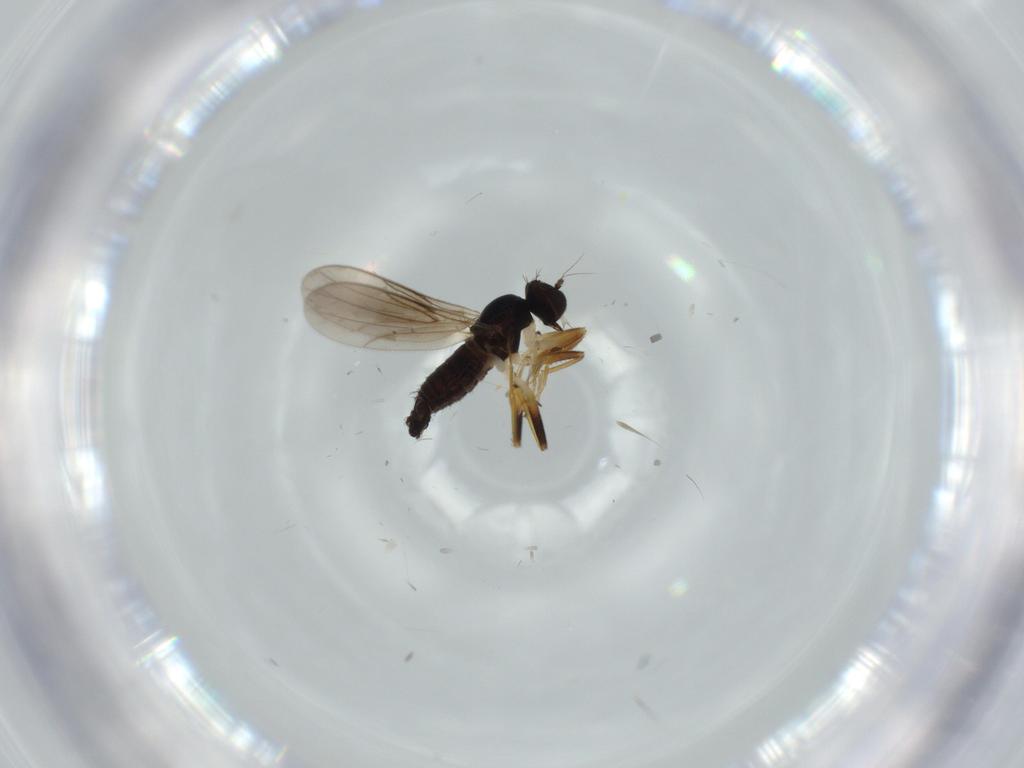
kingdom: Animalia
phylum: Arthropoda
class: Insecta
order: Diptera
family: Hybotidae
